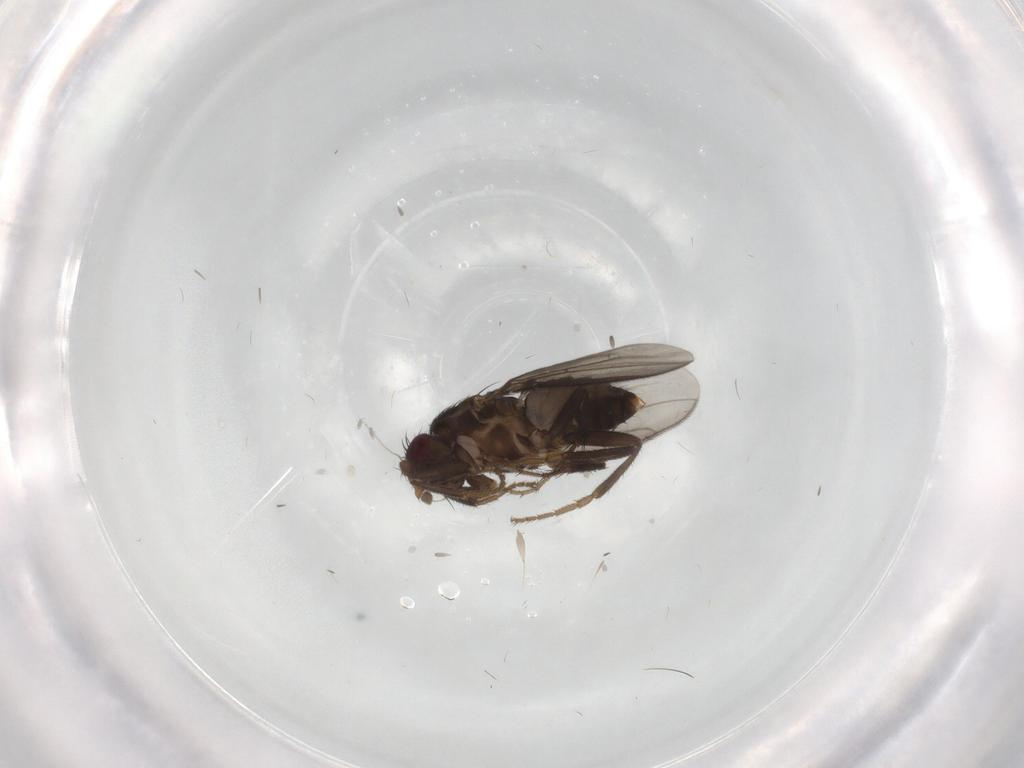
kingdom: Animalia
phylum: Arthropoda
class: Insecta
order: Diptera
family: Sphaeroceridae
